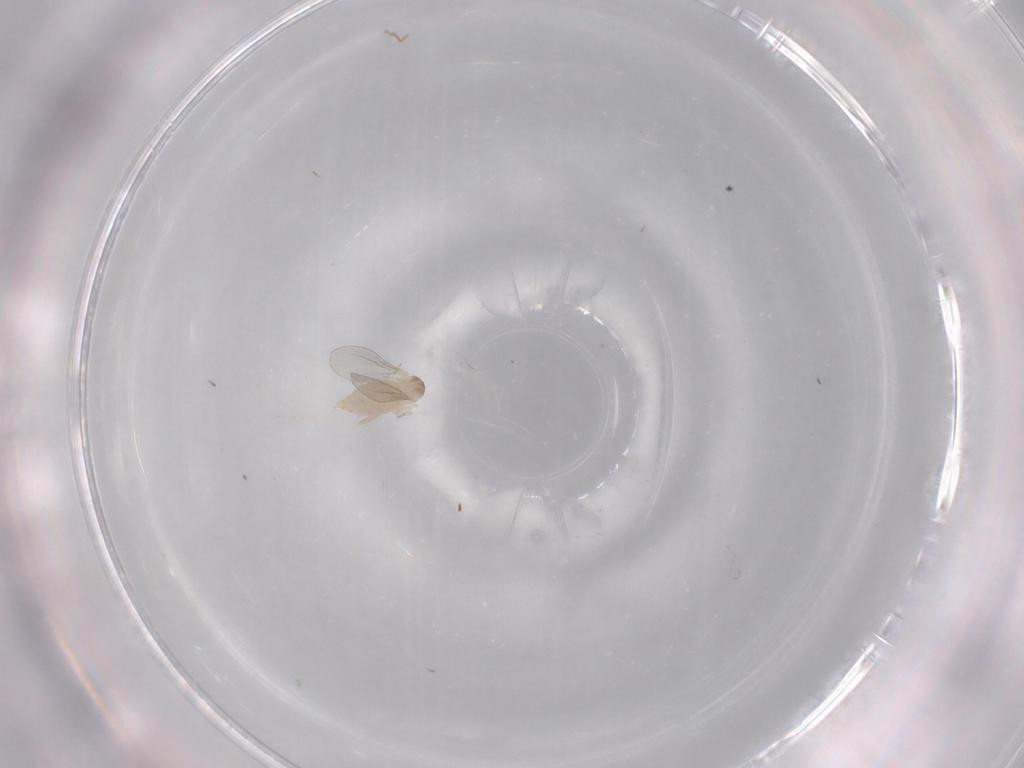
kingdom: Animalia
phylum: Arthropoda
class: Insecta
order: Diptera
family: Cecidomyiidae
